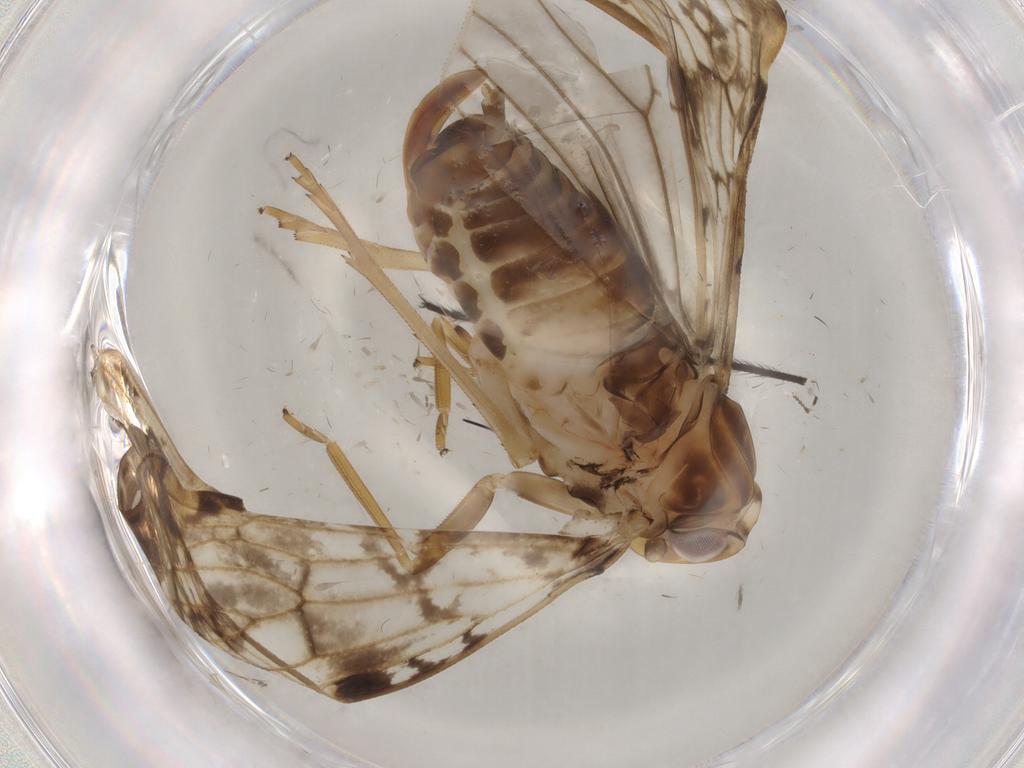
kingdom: Animalia
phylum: Arthropoda
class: Insecta
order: Hemiptera
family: Cixiidae
